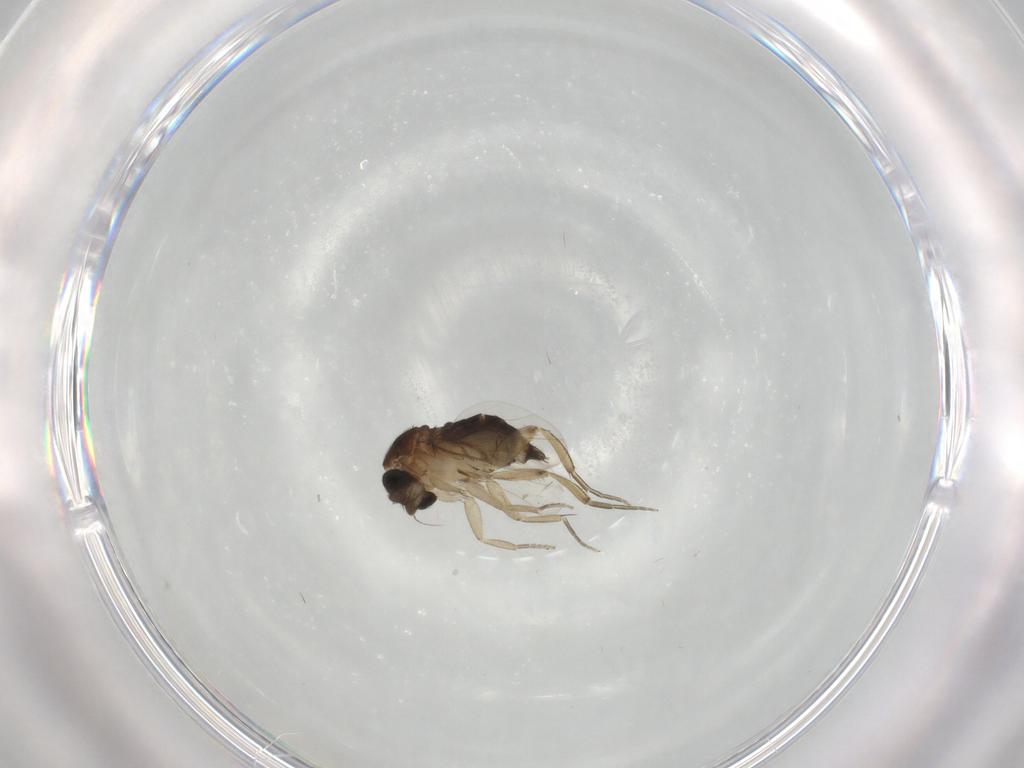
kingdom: Animalia
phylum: Arthropoda
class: Insecta
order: Diptera
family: Phoridae
